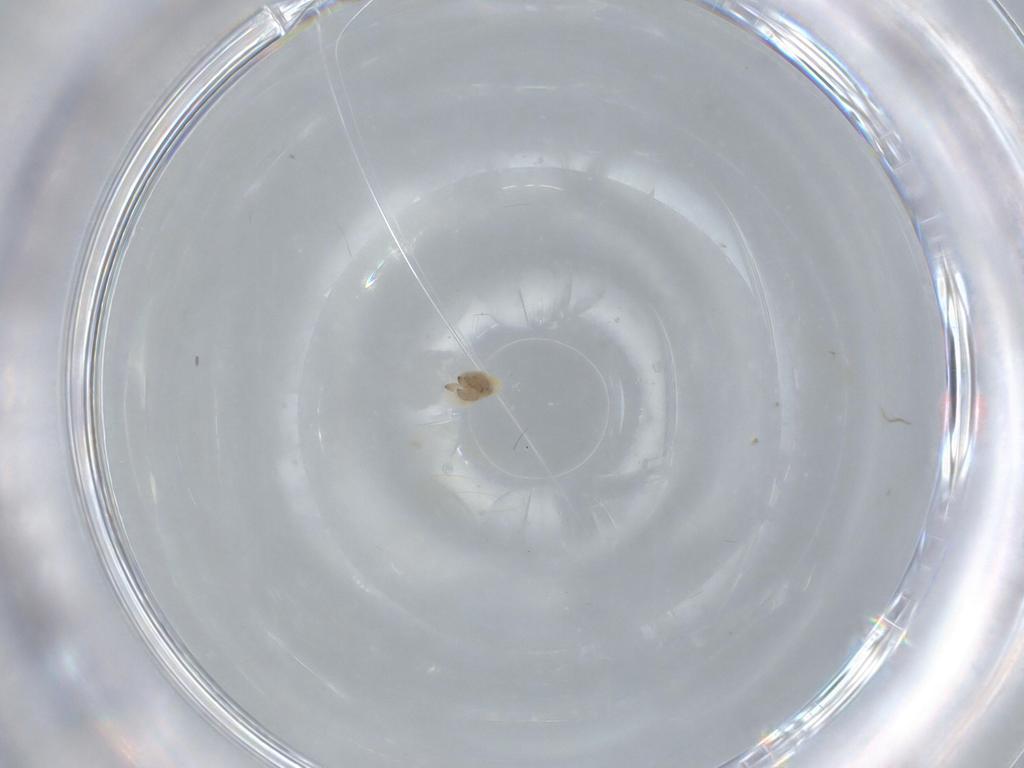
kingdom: Animalia
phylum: Arthropoda
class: Insecta
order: Hemiptera
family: Aleyrodidae
